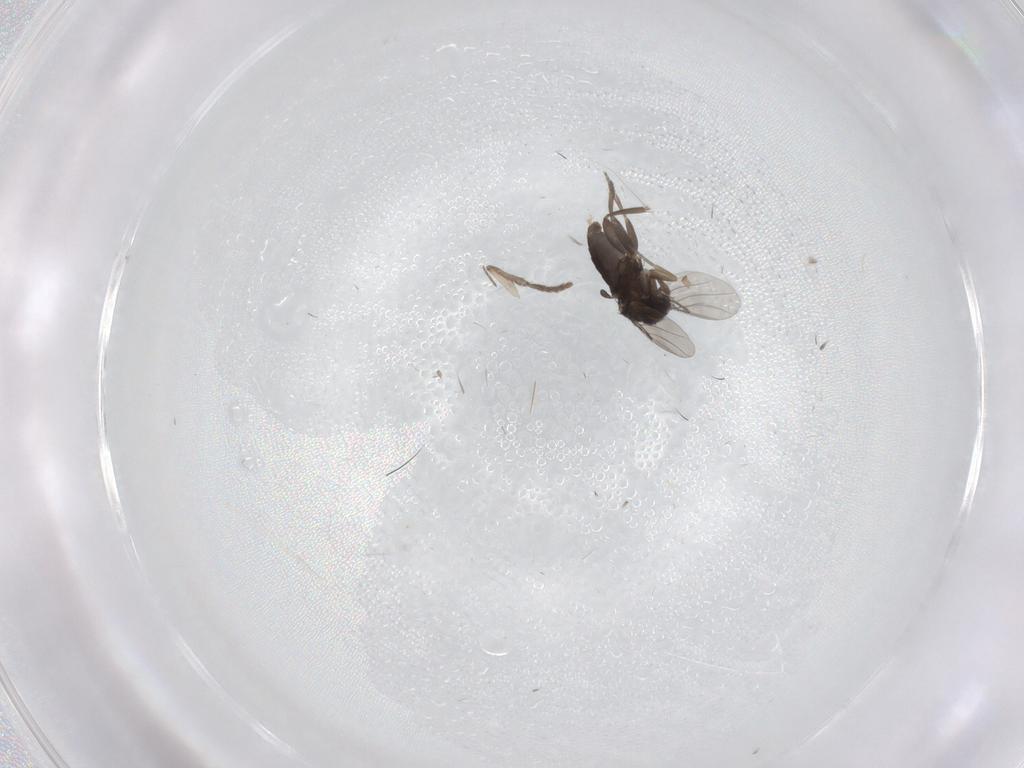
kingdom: Animalia
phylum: Arthropoda
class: Insecta
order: Diptera
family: Phoridae
